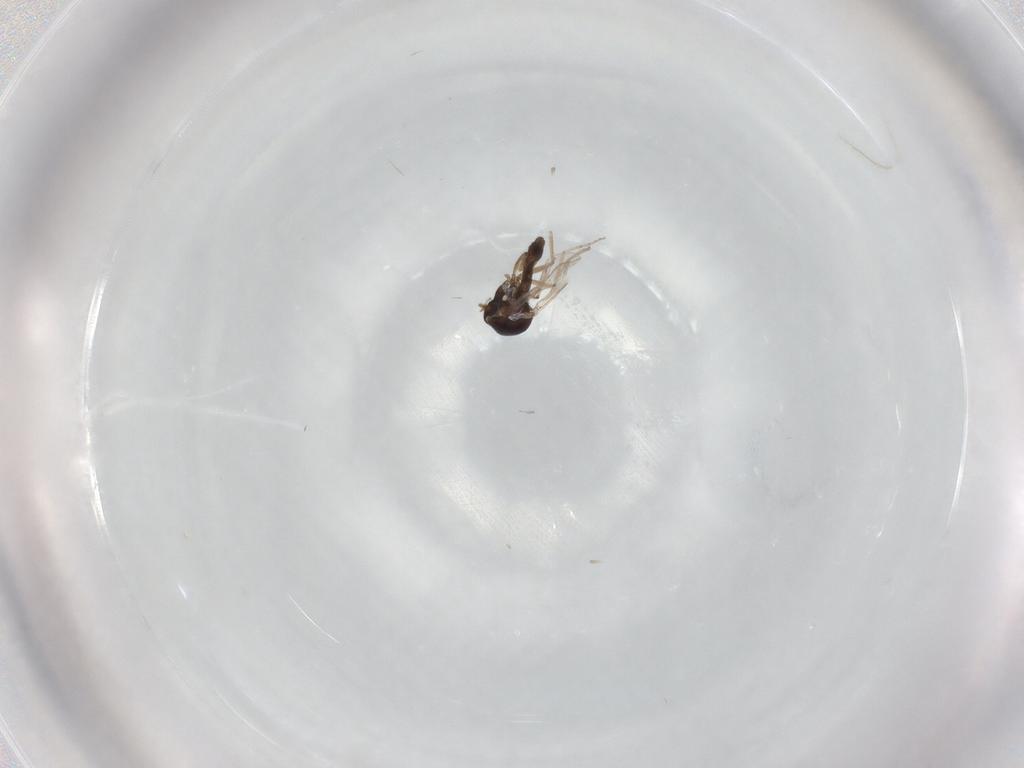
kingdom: Animalia
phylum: Arthropoda
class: Insecta
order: Diptera
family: Ceratopogonidae
